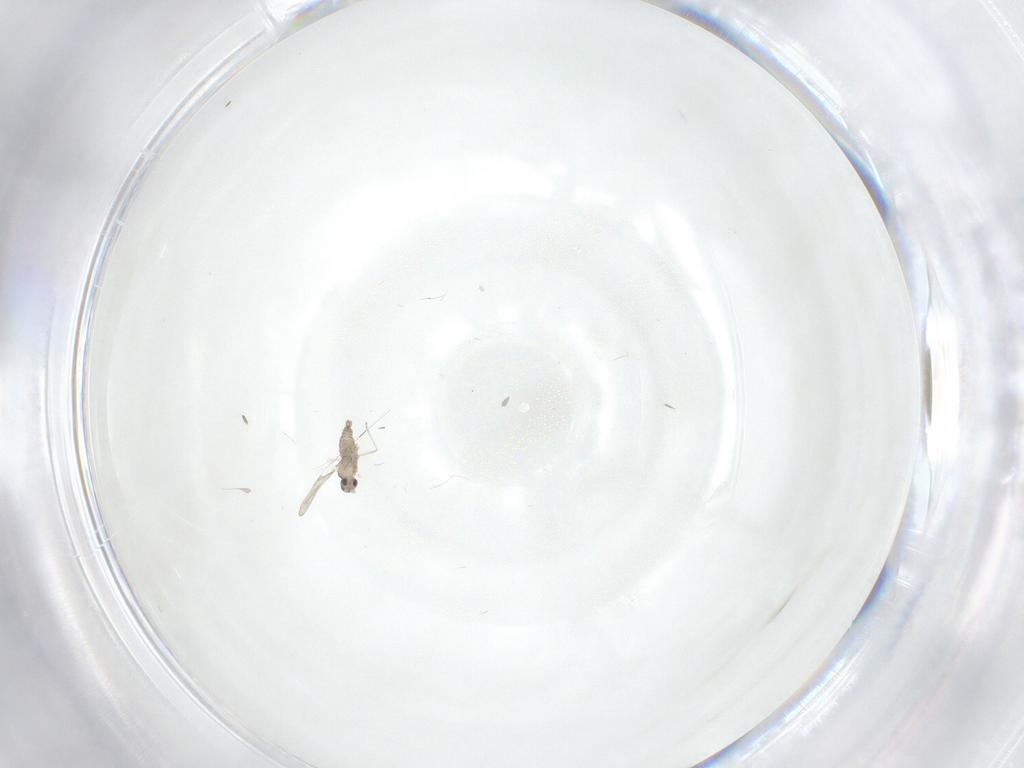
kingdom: Animalia
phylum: Arthropoda
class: Insecta
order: Diptera
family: Cecidomyiidae
